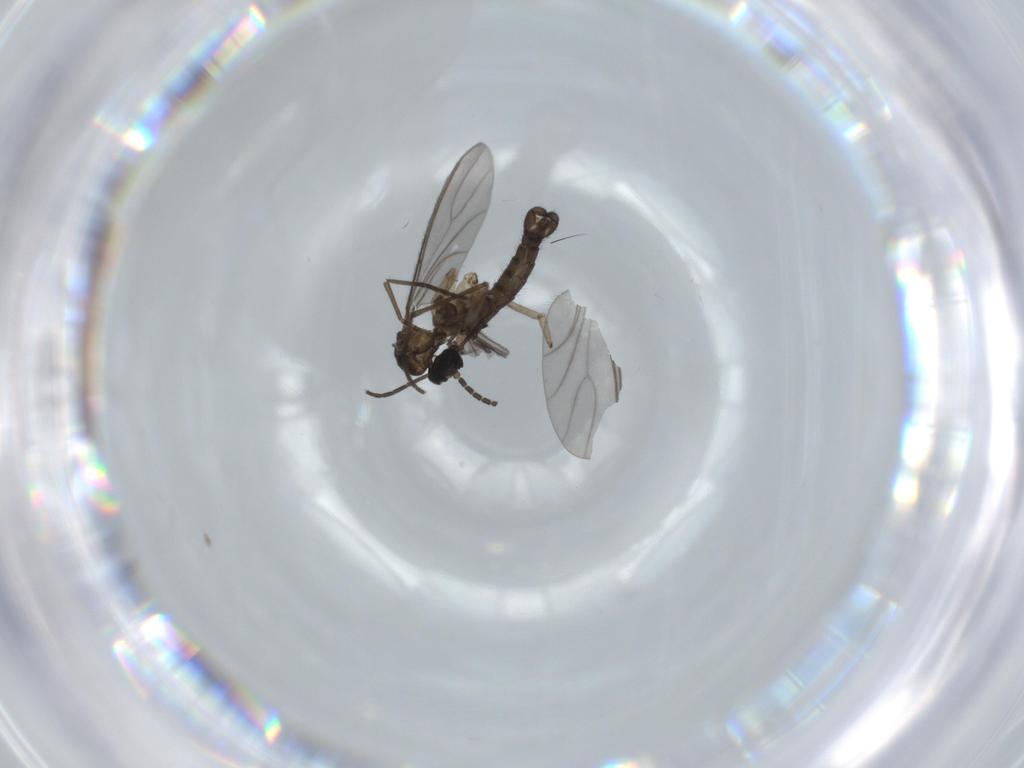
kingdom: Animalia
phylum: Arthropoda
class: Insecta
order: Diptera
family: Sciaridae
